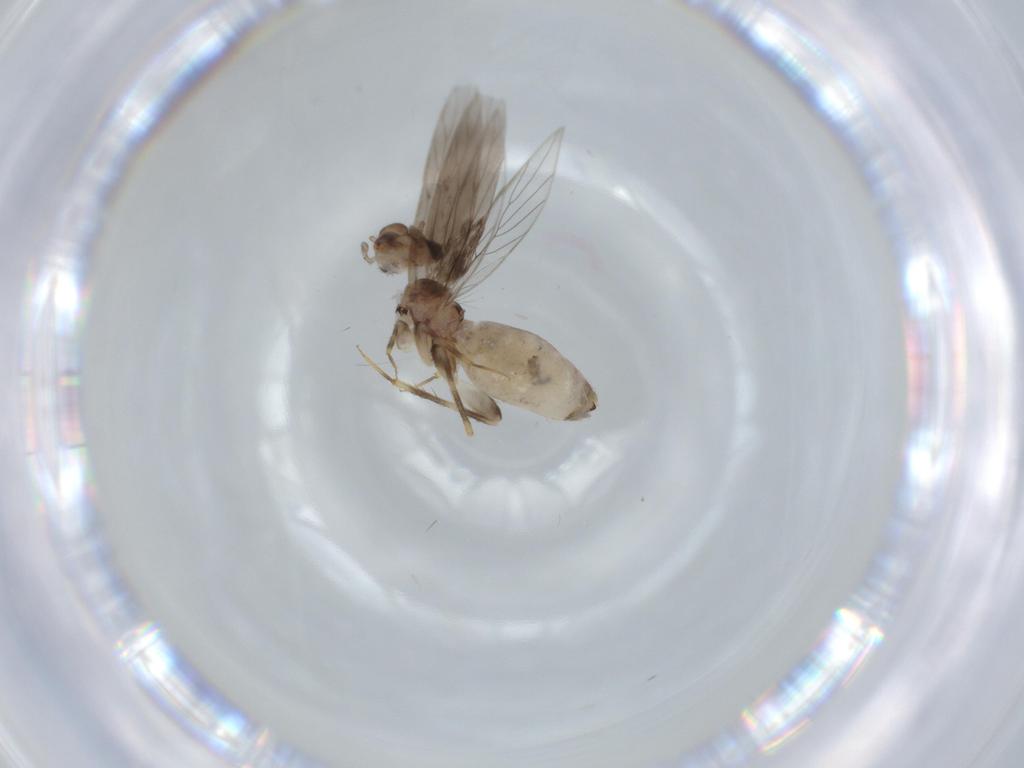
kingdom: Animalia
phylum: Arthropoda
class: Insecta
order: Psocodea
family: Lepidopsocidae
